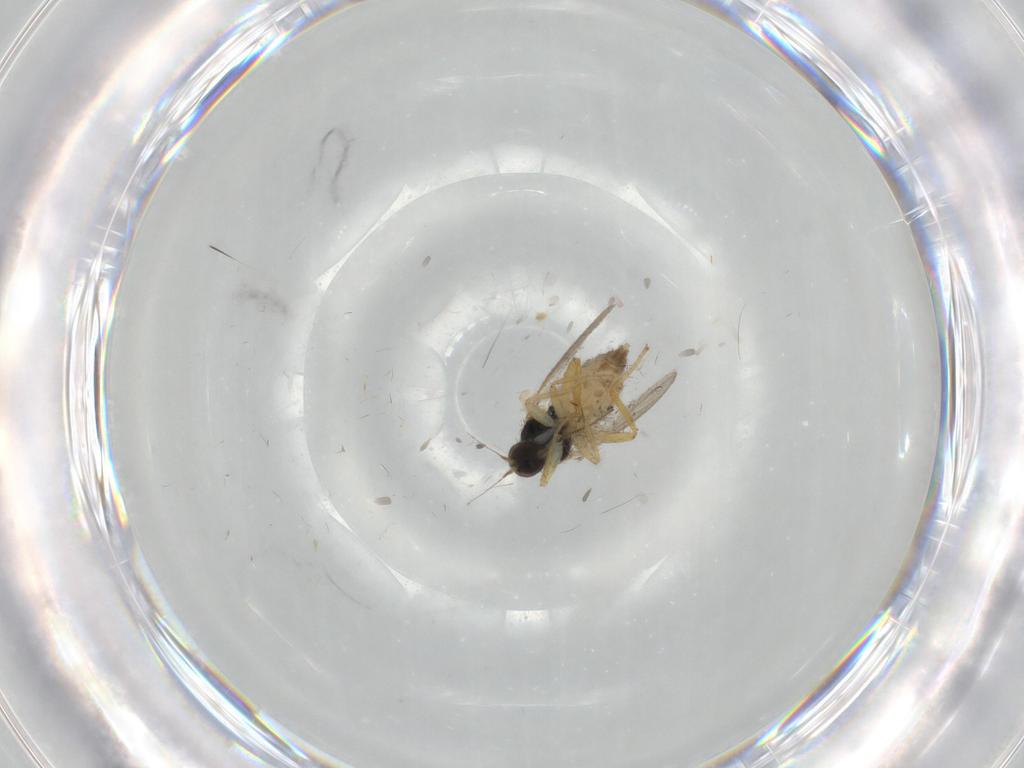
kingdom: Animalia
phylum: Arthropoda
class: Insecta
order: Diptera
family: Hybotidae
